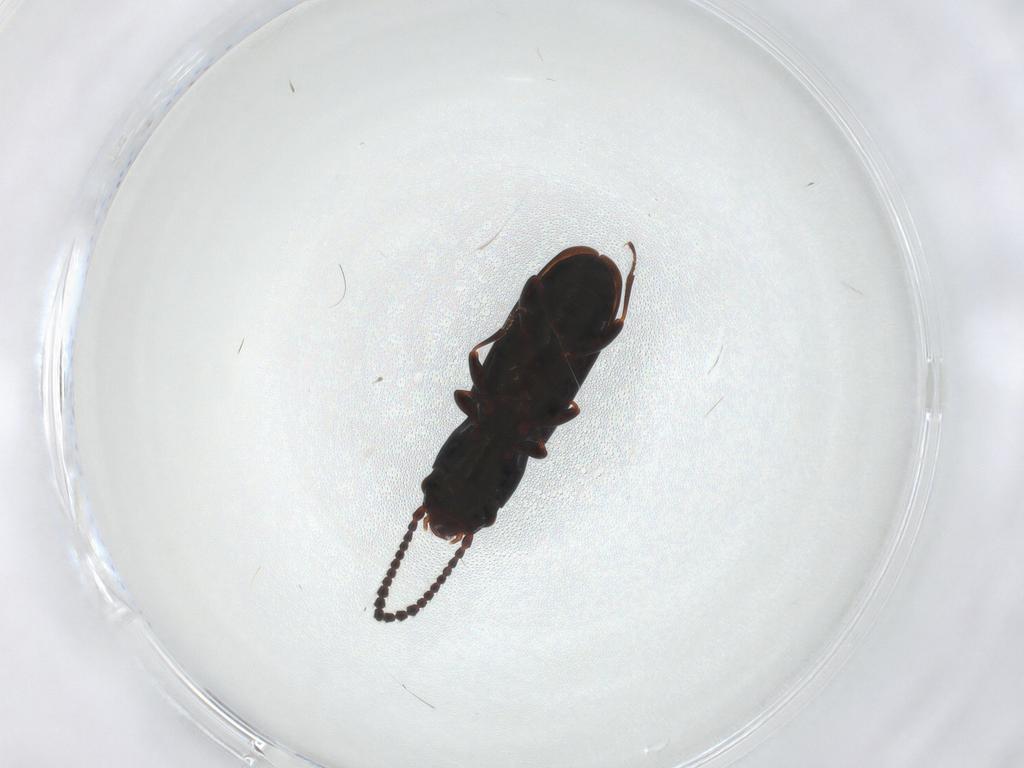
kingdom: Animalia
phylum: Arthropoda
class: Insecta
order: Coleoptera
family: Laemophloeidae
